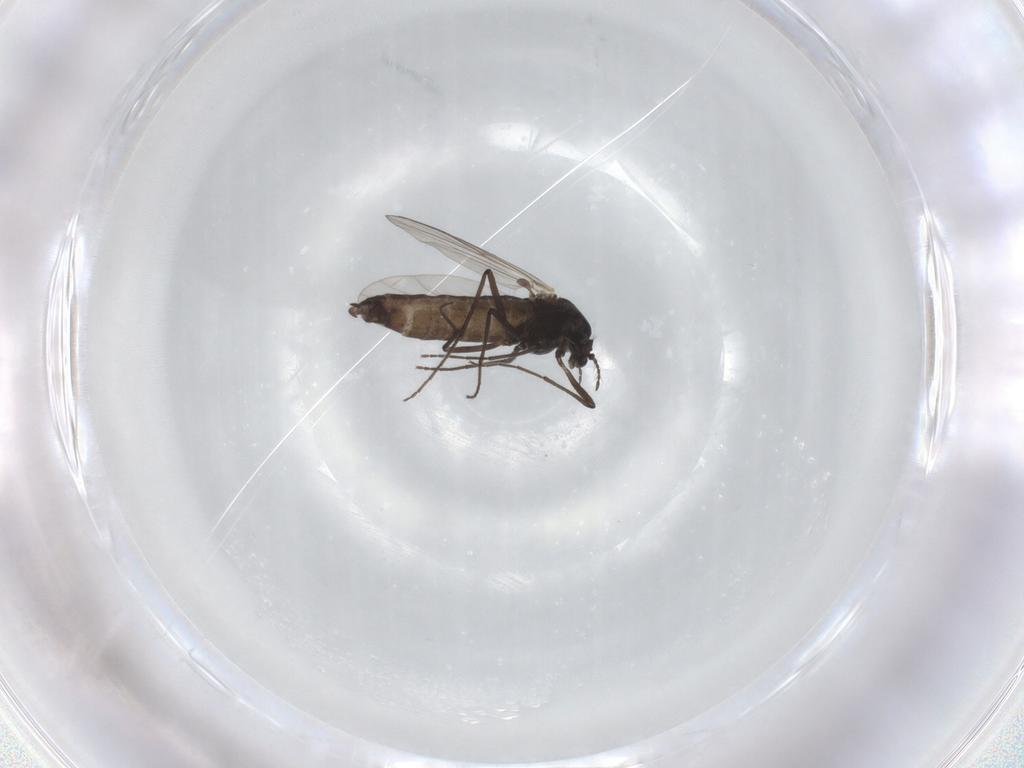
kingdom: Animalia
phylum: Arthropoda
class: Insecta
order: Diptera
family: Chironomidae
